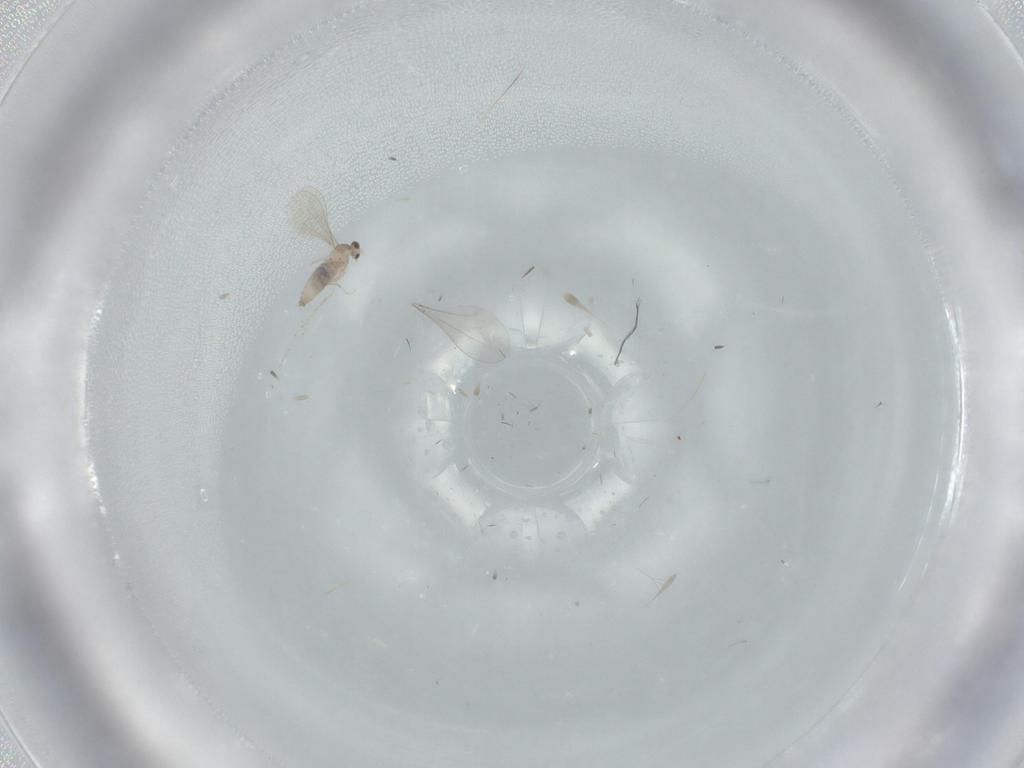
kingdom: Animalia
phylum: Arthropoda
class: Insecta
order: Diptera
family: Cecidomyiidae
